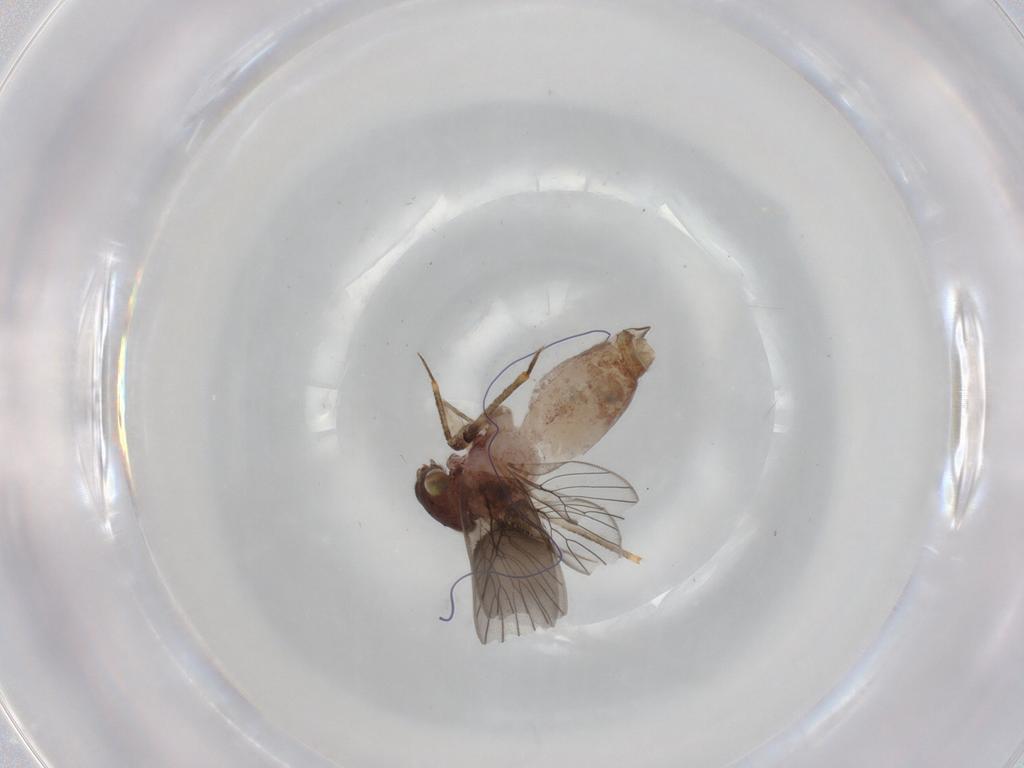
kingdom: Animalia
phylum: Arthropoda
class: Insecta
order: Psocodea
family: Lepidopsocidae
